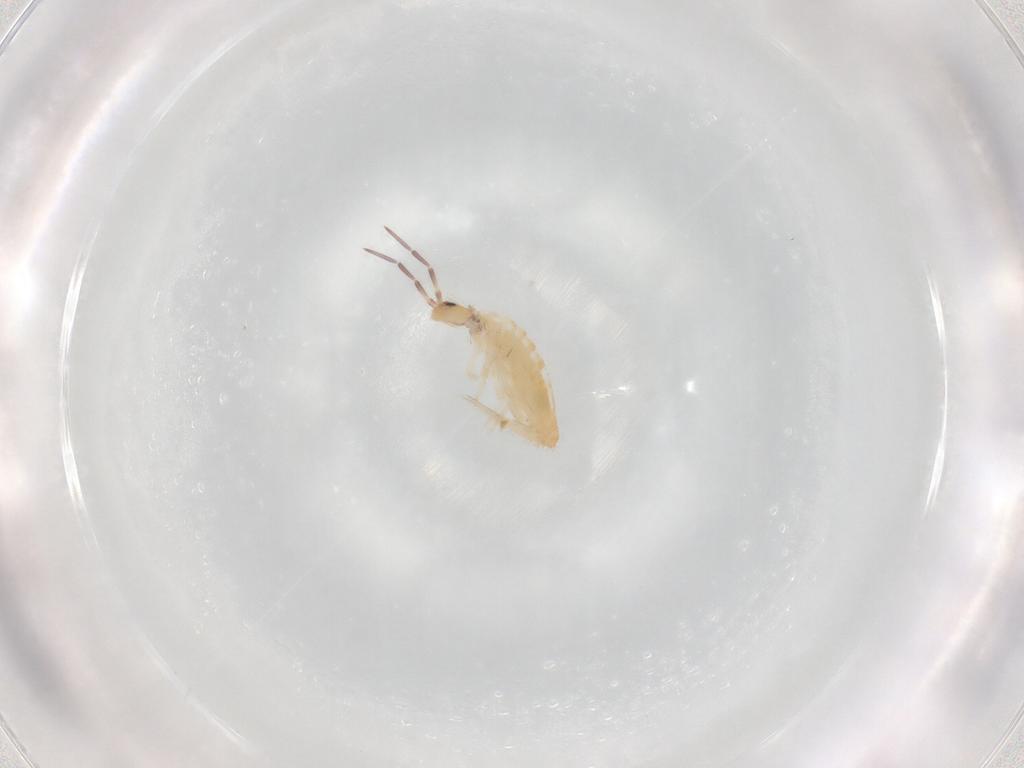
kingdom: Animalia
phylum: Arthropoda
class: Collembola
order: Entomobryomorpha
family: Entomobryidae
